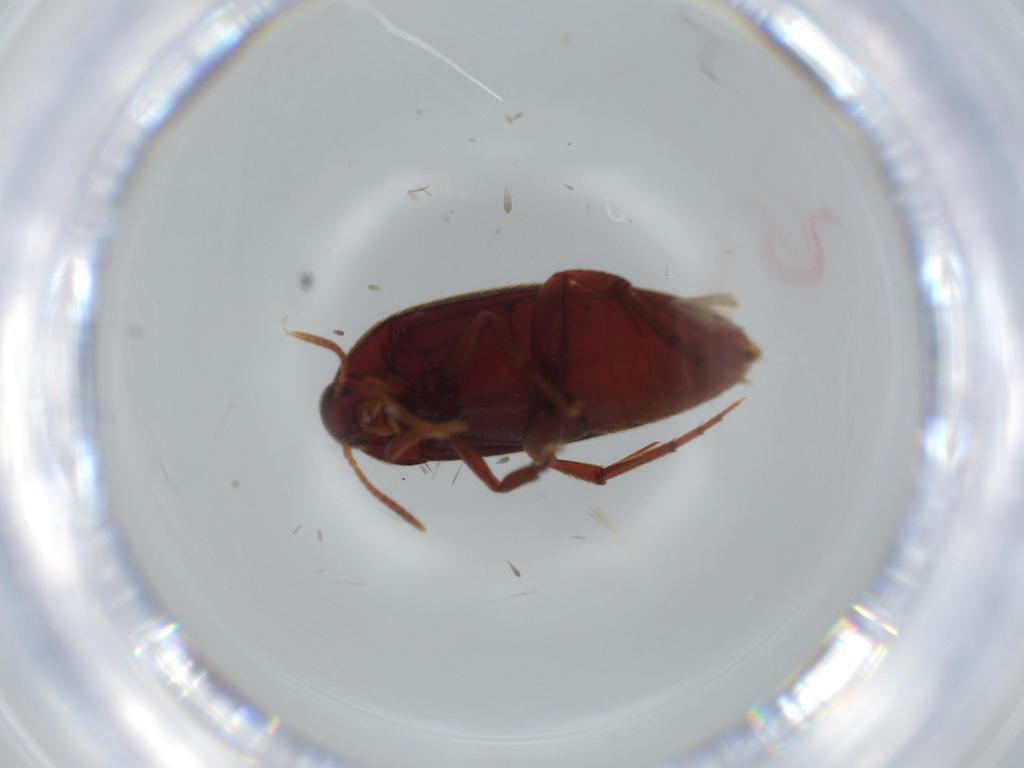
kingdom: Animalia
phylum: Arthropoda
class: Insecta
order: Coleoptera
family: Melandryidae
